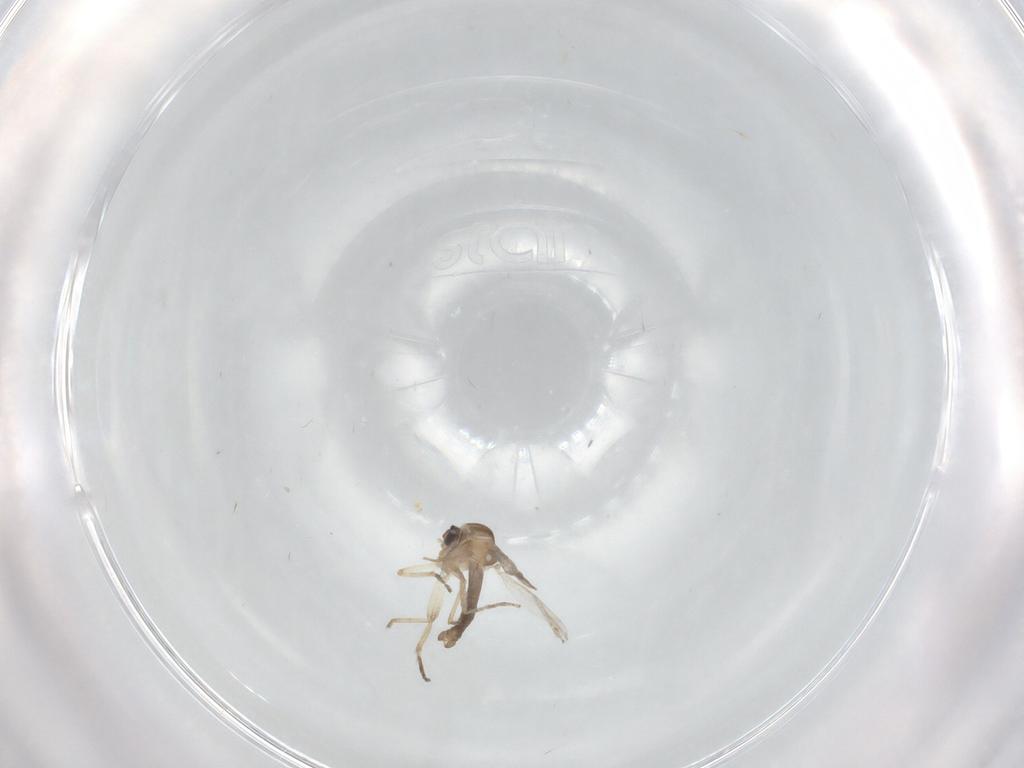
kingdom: Animalia
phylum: Arthropoda
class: Insecta
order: Diptera
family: Ceratopogonidae
